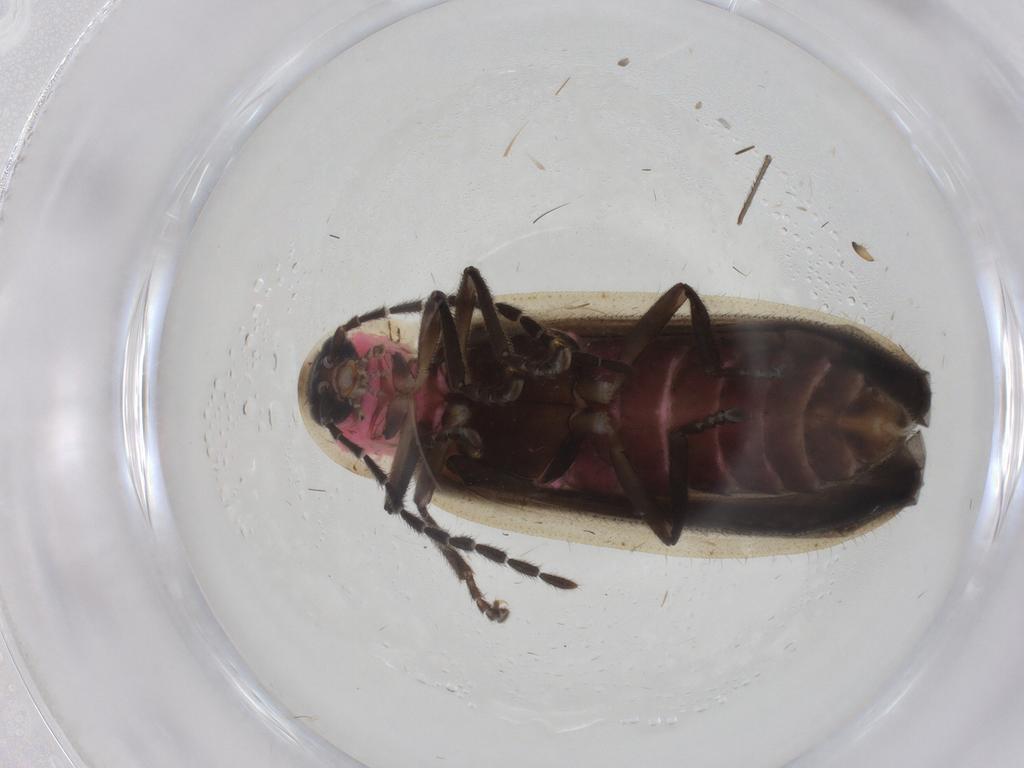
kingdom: Animalia
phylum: Arthropoda
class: Insecta
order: Coleoptera
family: Lampyridae
